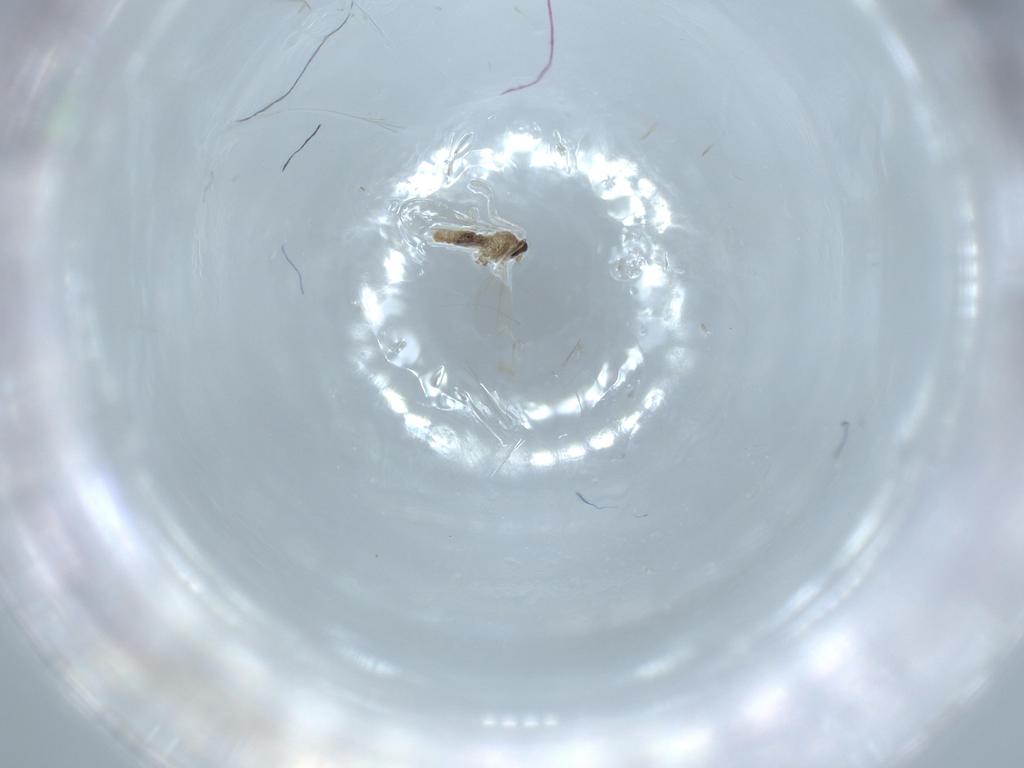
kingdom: Animalia
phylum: Arthropoda
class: Insecta
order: Diptera
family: Cecidomyiidae
